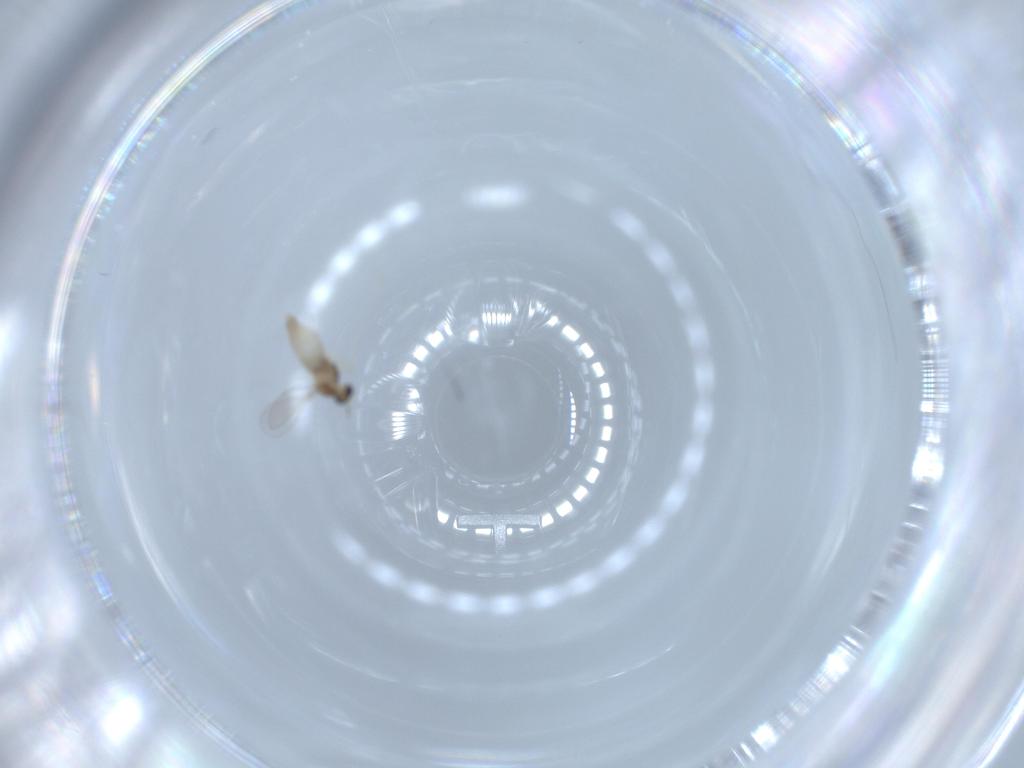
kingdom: Animalia
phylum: Arthropoda
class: Insecta
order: Diptera
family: Cecidomyiidae
